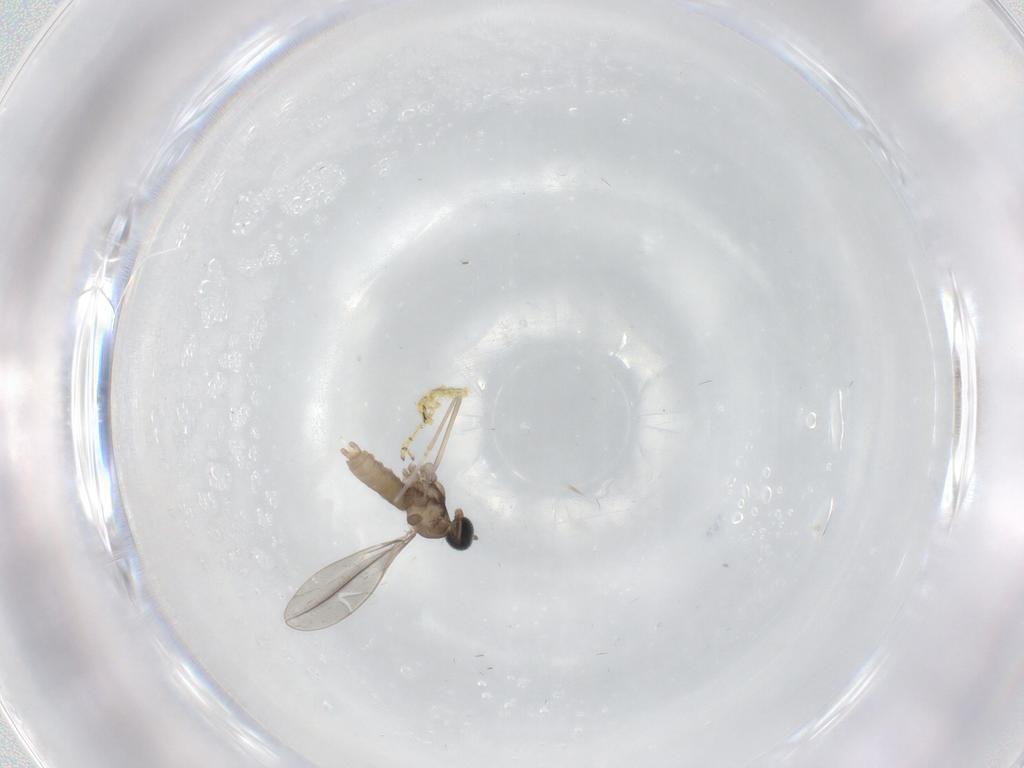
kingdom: Animalia
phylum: Arthropoda
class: Insecta
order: Diptera
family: Cecidomyiidae
